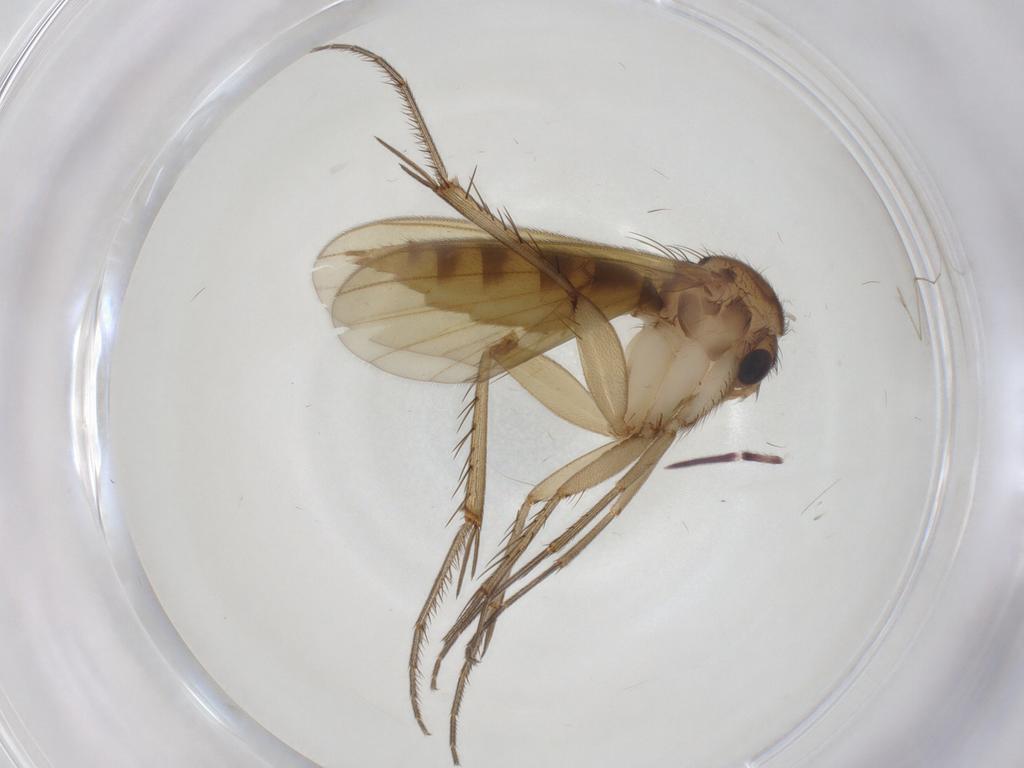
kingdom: Animalia
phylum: Arthropoda
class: Insecta
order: Diptera
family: Mycetophilidae
